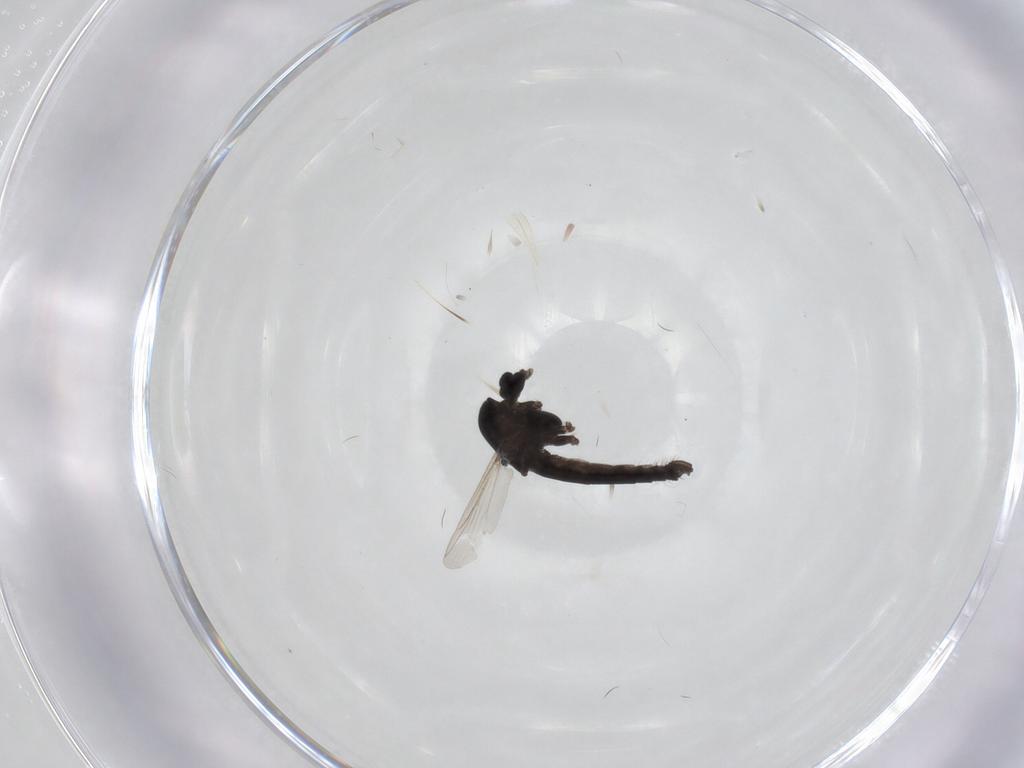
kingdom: Animalia
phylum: Arthropoda
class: Insecta
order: Diptera
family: Chironomidae
